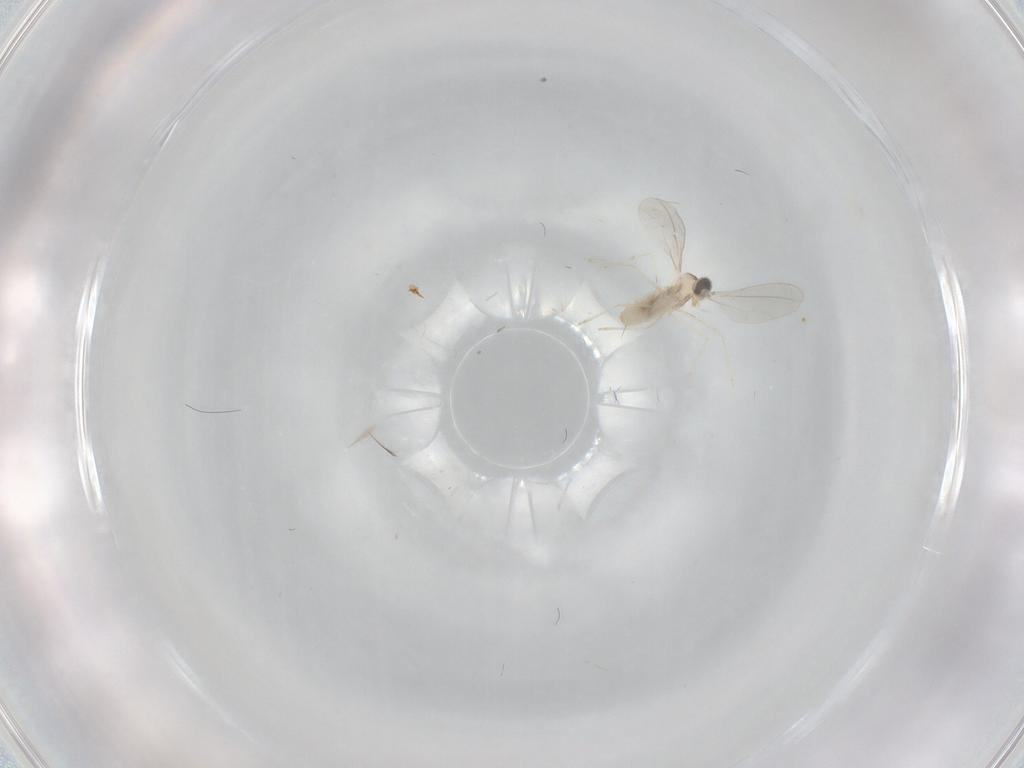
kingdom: Animalia
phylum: Arthropoda
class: Insecta
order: Diptera
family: Cecidomyiidae
